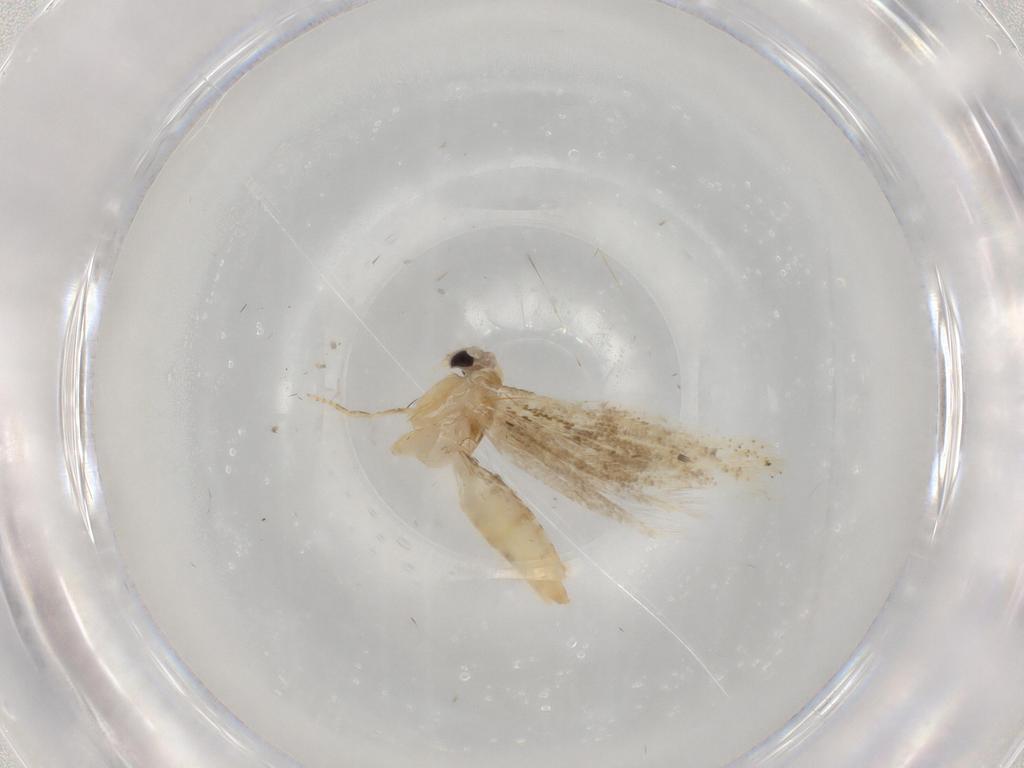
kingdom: Animalia
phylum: Arthropoda
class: Insecta
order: Lepidoptera
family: Bucculatricidae
